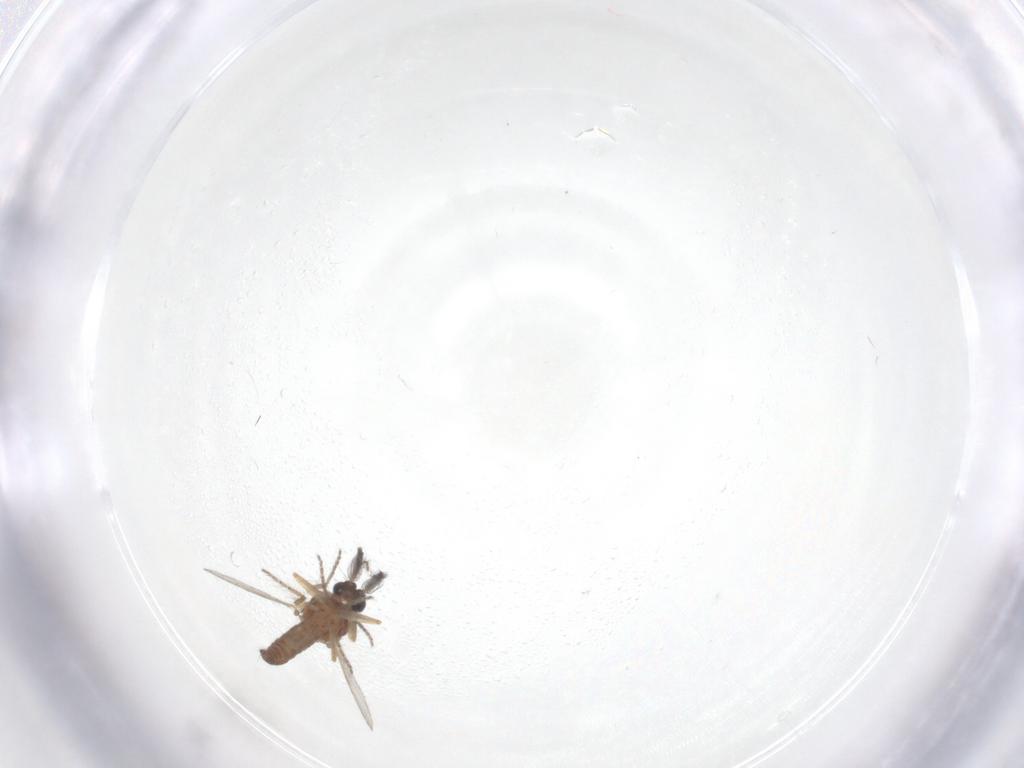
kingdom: Animalia
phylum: Arthropoda
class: Insecta
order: Diptera
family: Ceratopogonidae
